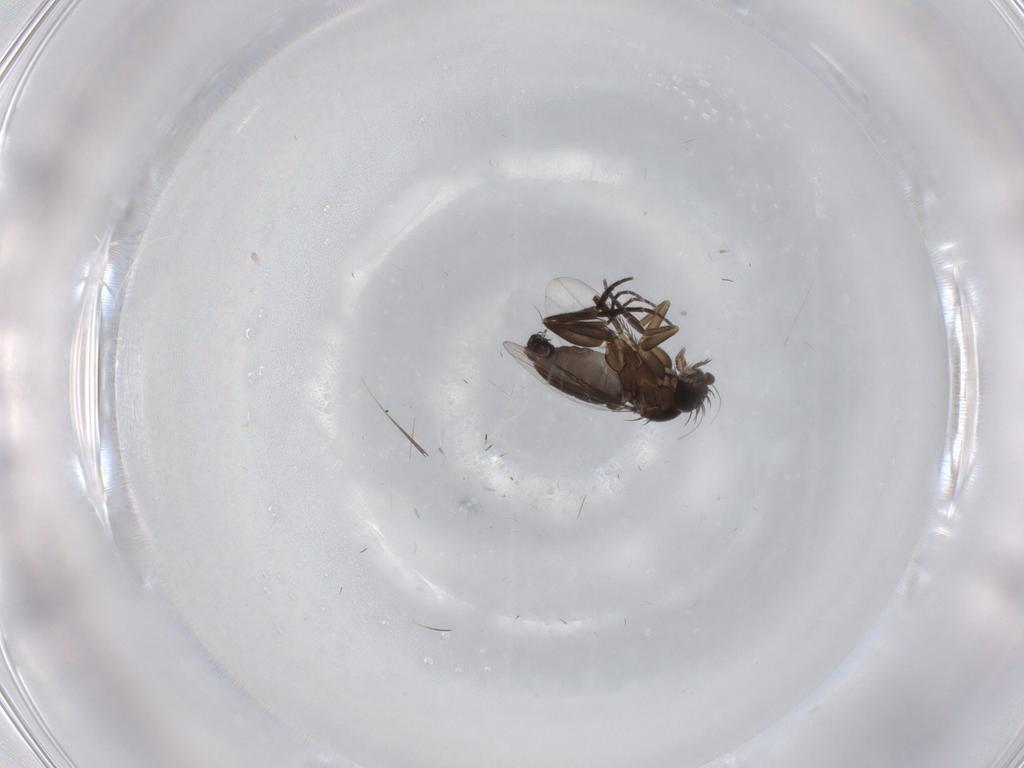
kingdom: Animalia
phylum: Arthropoda
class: Insecta
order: Diptera
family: Phoridae
